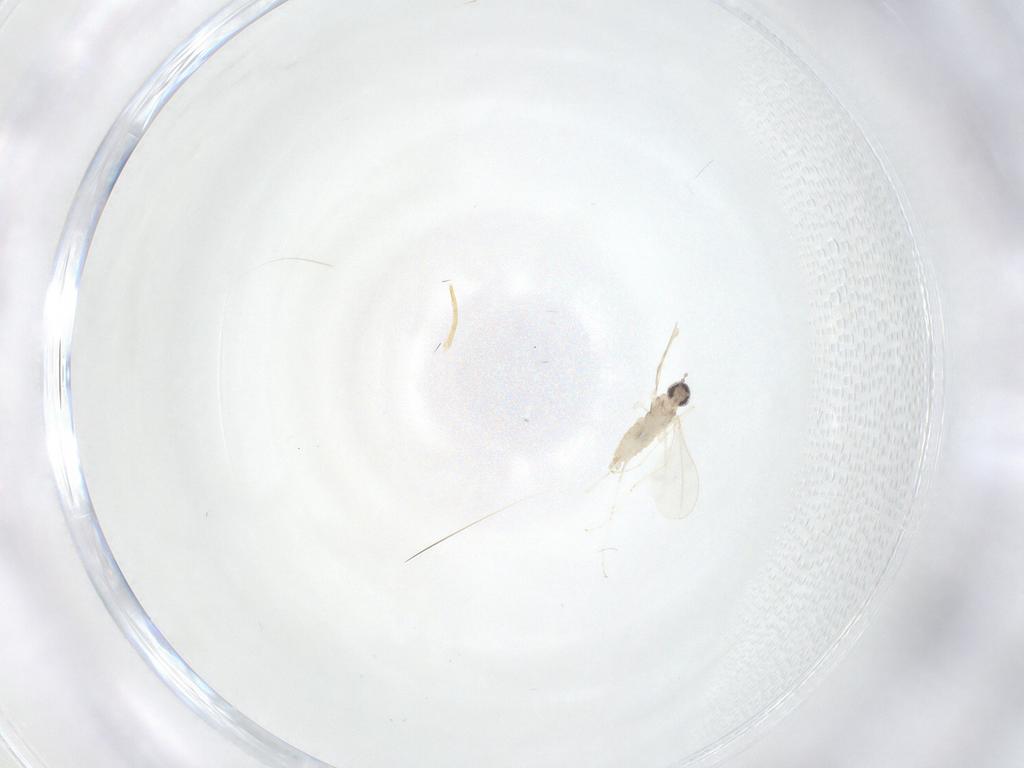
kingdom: Animalia
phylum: Arthropoda
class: Insecta
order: Diptera
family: Cecidomyiidae
